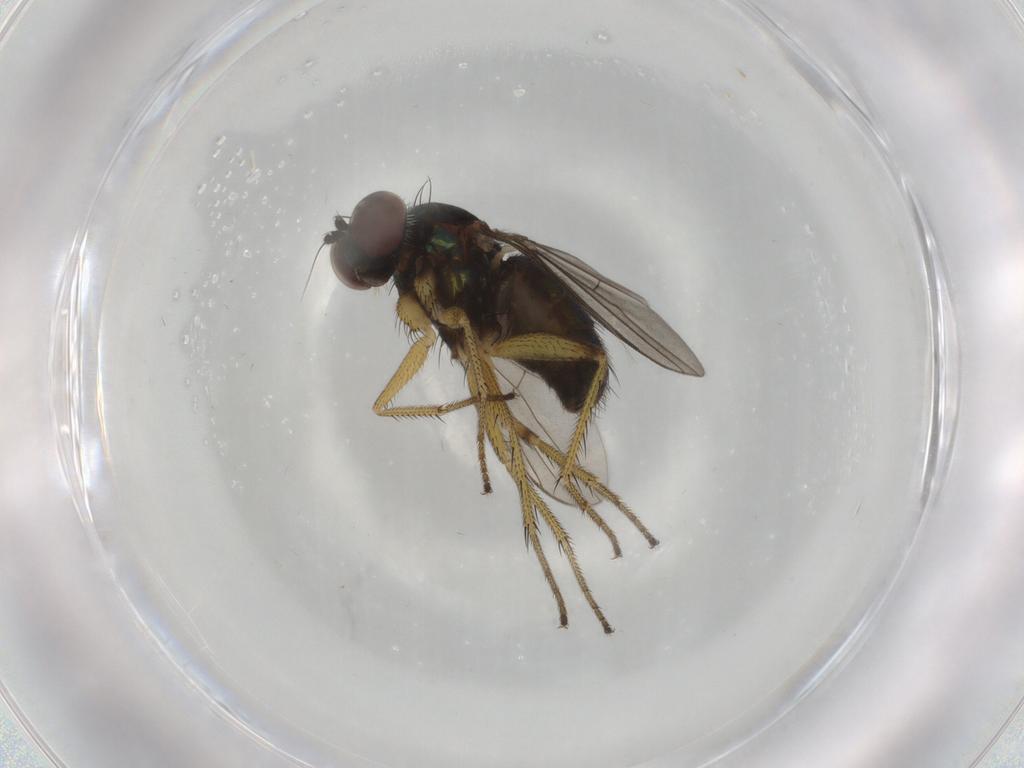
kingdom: Animalia
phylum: Arthropoda
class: Insecta
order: Diptera
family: Dolichopodidae
